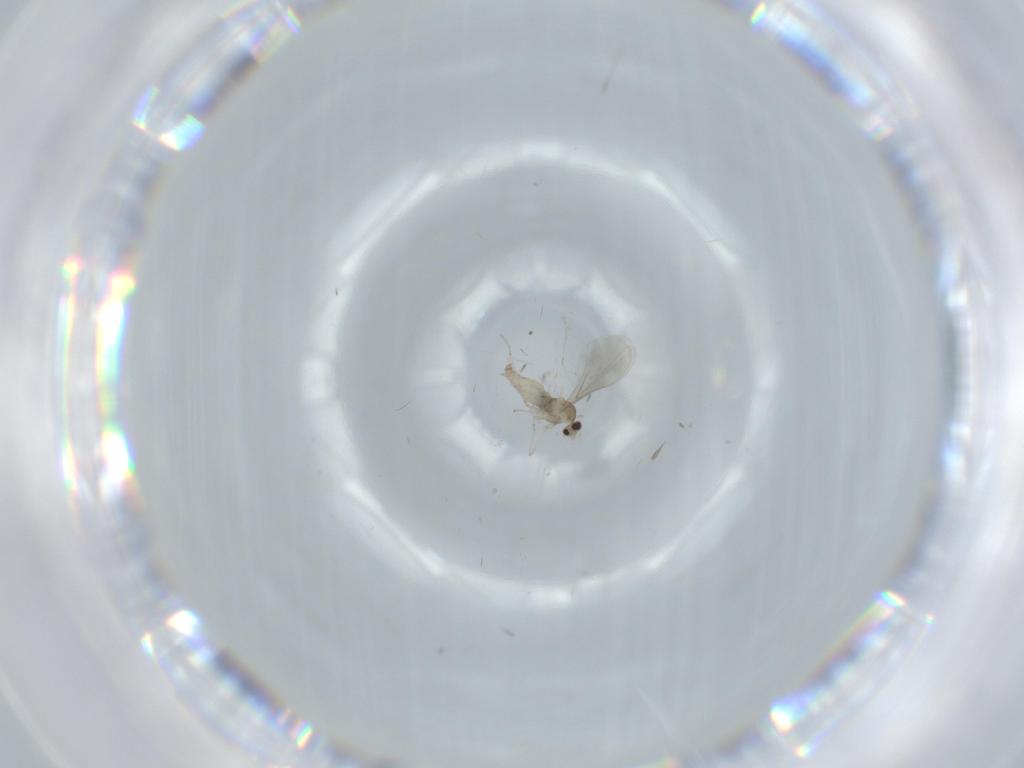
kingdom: Animalia
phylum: Arthropoda
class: Insecta
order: Diptera
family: Cecidomyiidae
